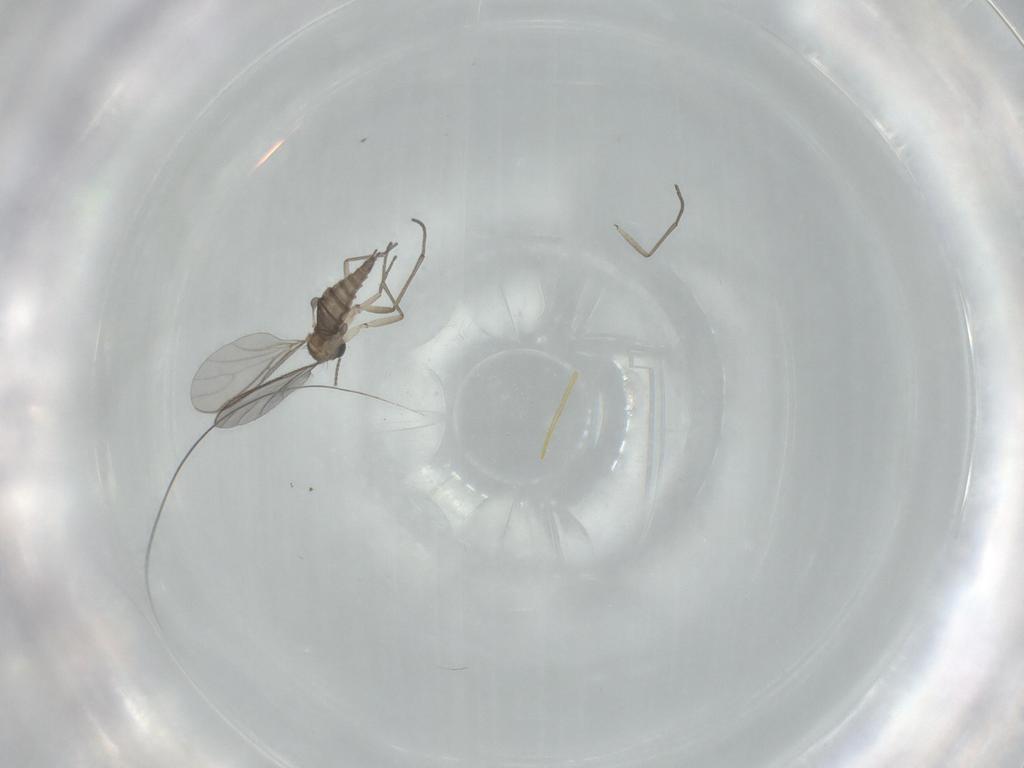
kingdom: Animalia
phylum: Arthropoda
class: Insecta
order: Diptera
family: Sciaridae
